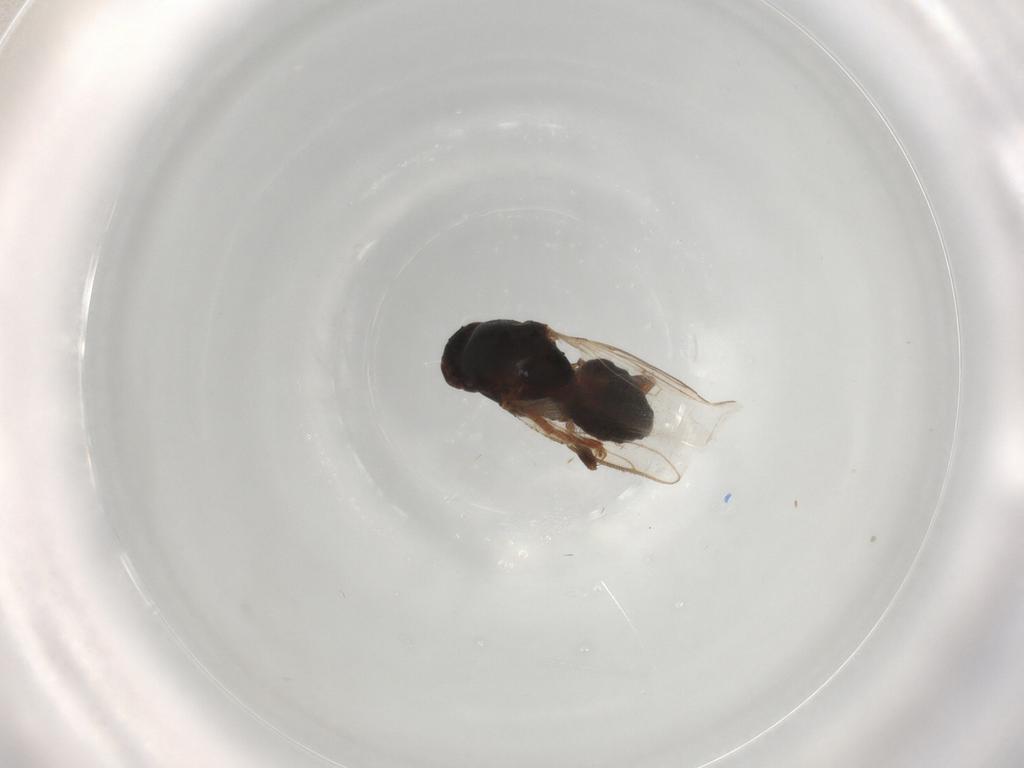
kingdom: Animalia
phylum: Arthropoda
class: Insecta
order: Diptera
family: Sphaeroceridae
